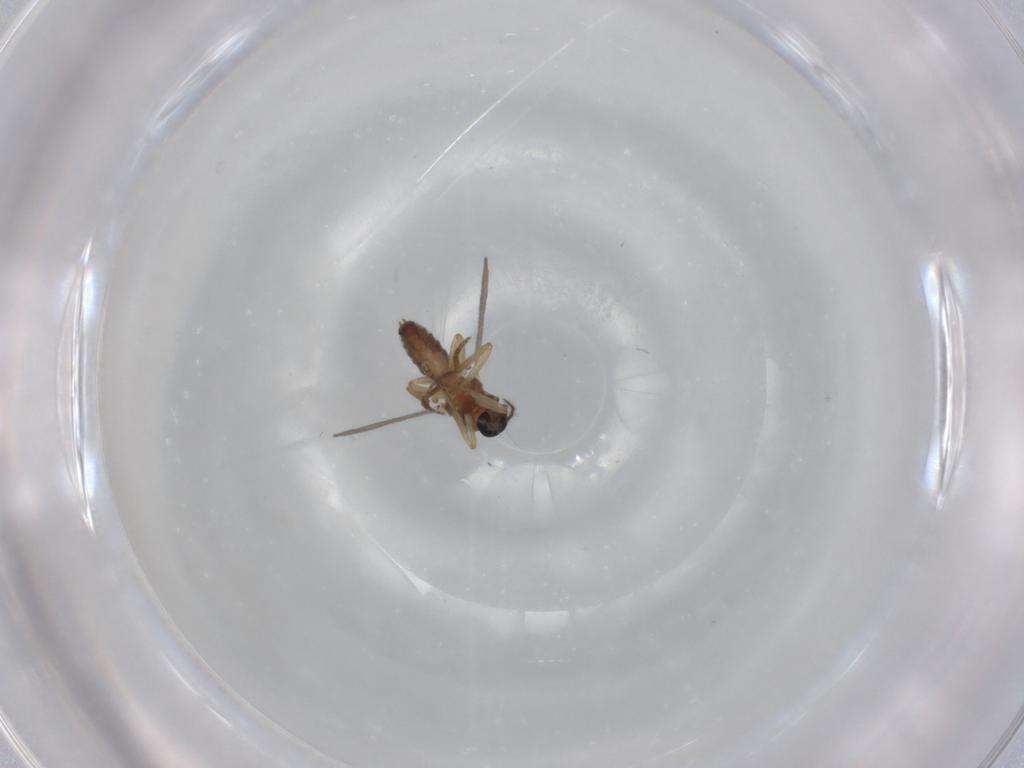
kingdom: Animalia
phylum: Arthropoda
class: Insecta
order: Diptera
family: Ceratopogonidae
